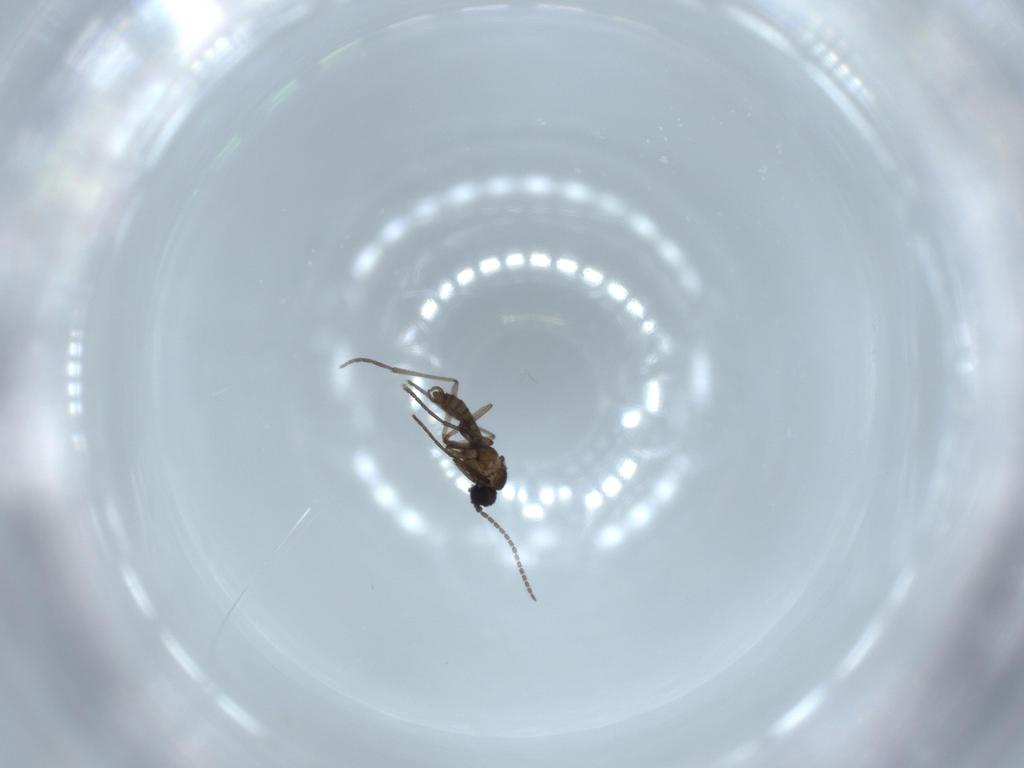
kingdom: Animalia
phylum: Arthropoda
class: Insecta
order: Diptera
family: Sciaridae
